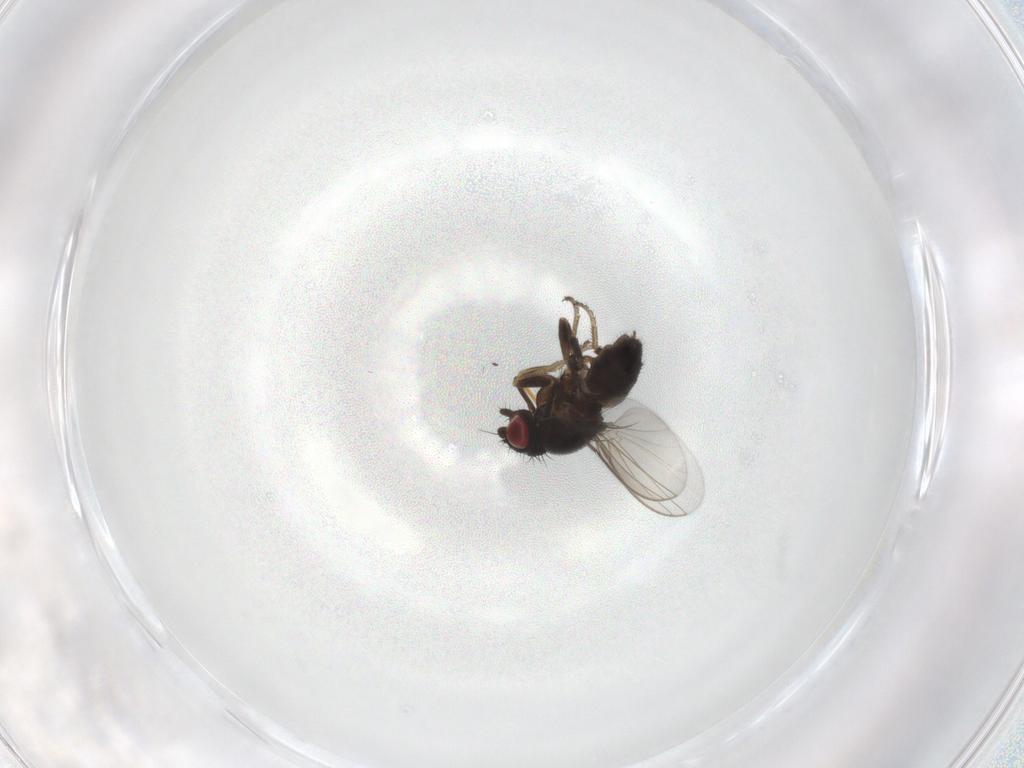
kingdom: Animalia
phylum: Arthropoda
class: Insecta
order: Diptera
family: Milichiidae
